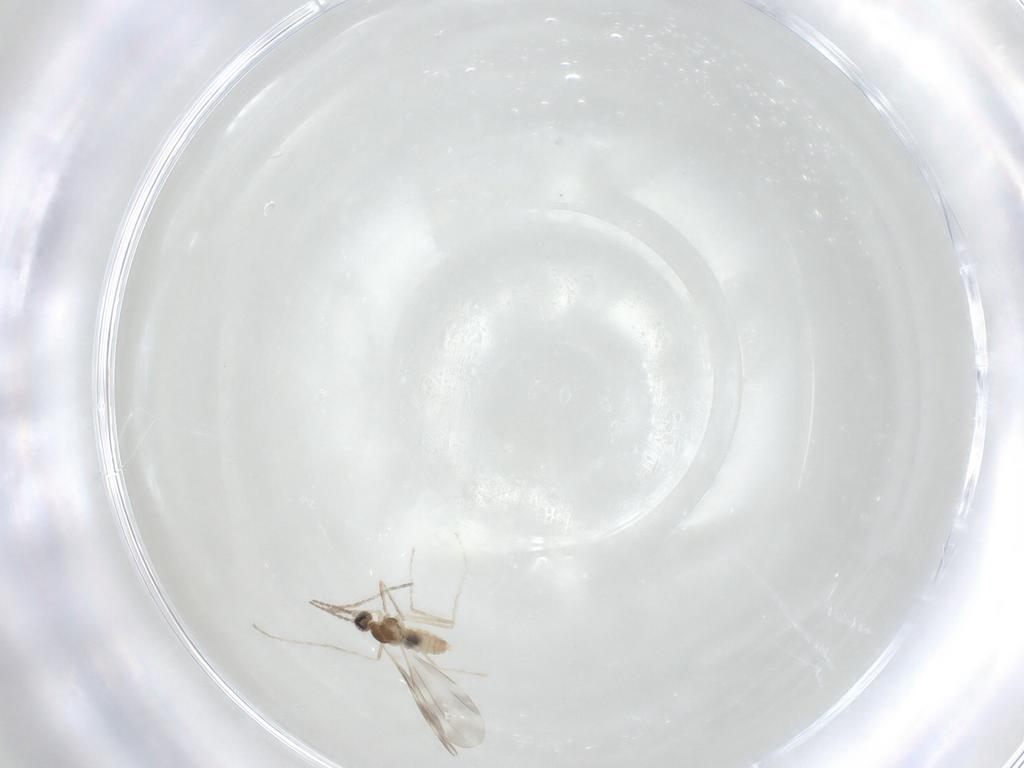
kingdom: Animalia
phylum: Arthropoda
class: Insecta
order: Diptera
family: Cecidomyiidae
